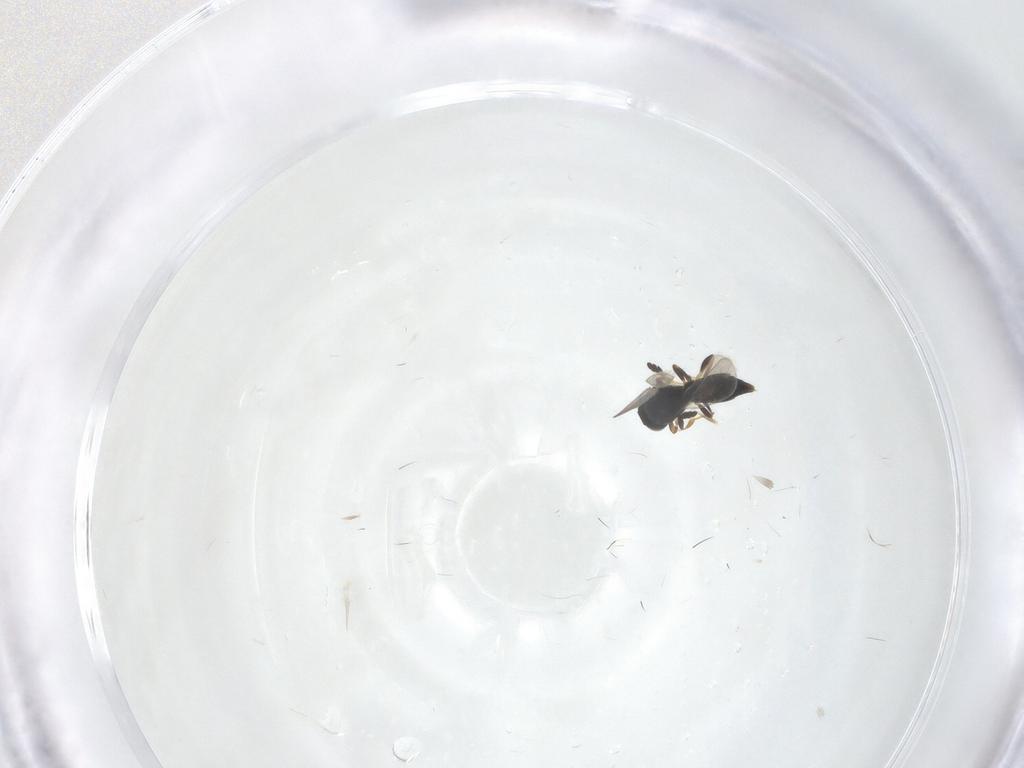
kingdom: Animalia
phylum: Arthropoda
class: Insecta
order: Hymenoptera
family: Platygastridae
